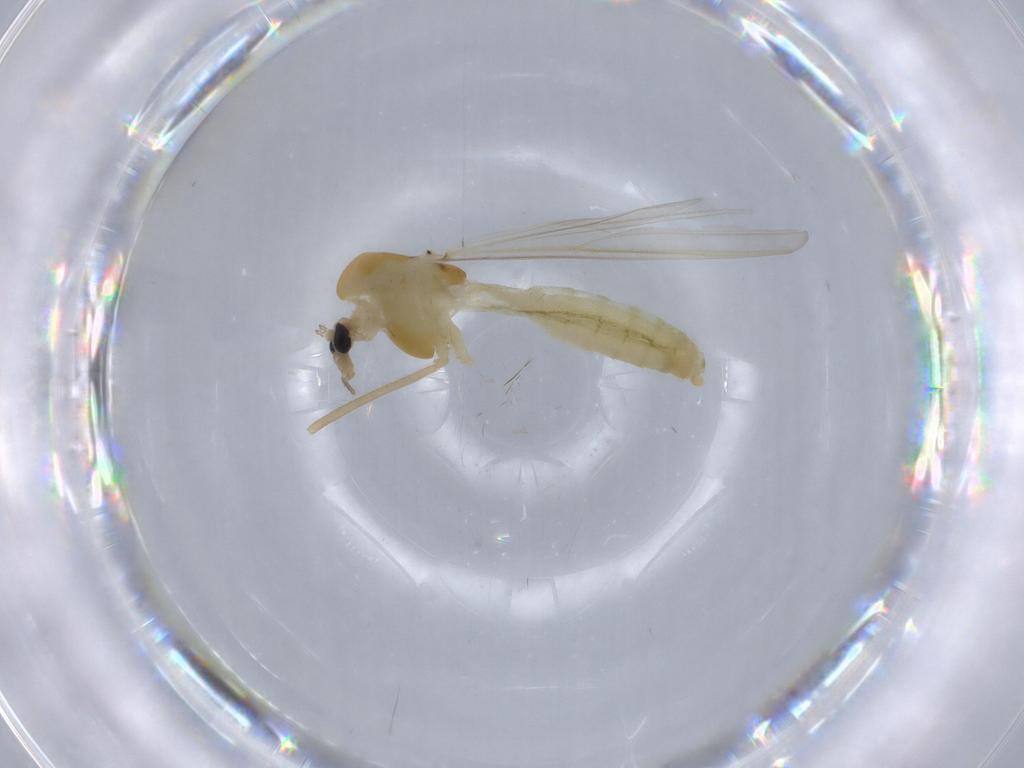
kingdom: Animalia
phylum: Arthropoda
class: Insecta
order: Diptera
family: Chironomidae
